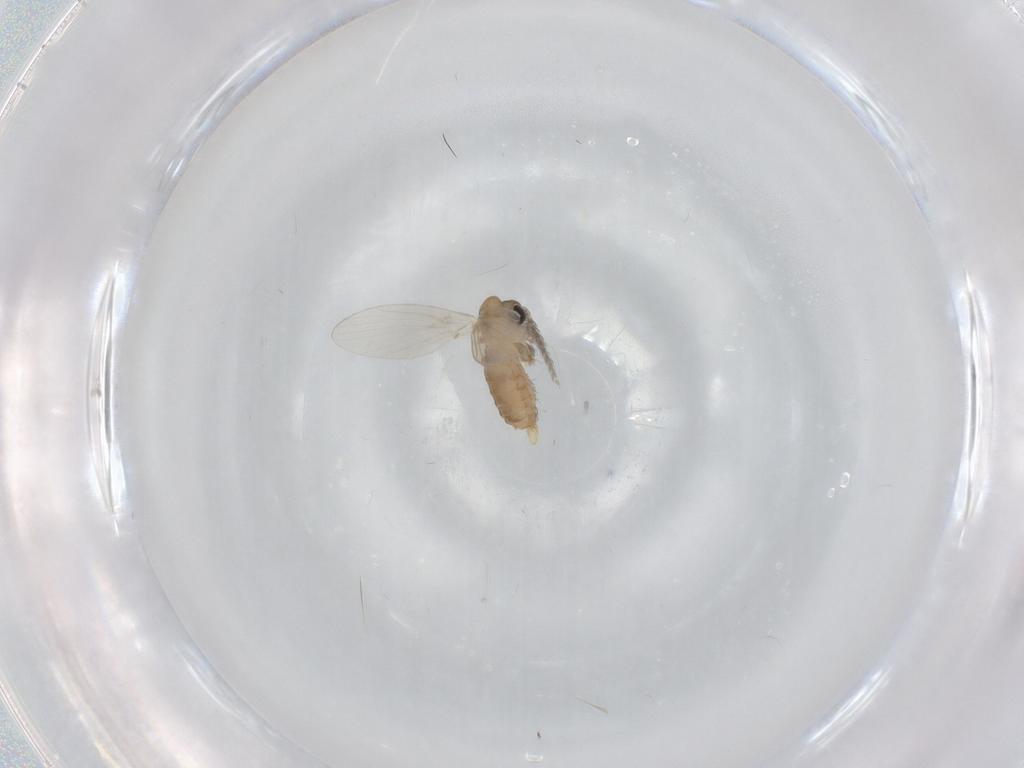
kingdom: Animalia
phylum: Arthropoda
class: Insecta
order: Diptera
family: Psychodidae
